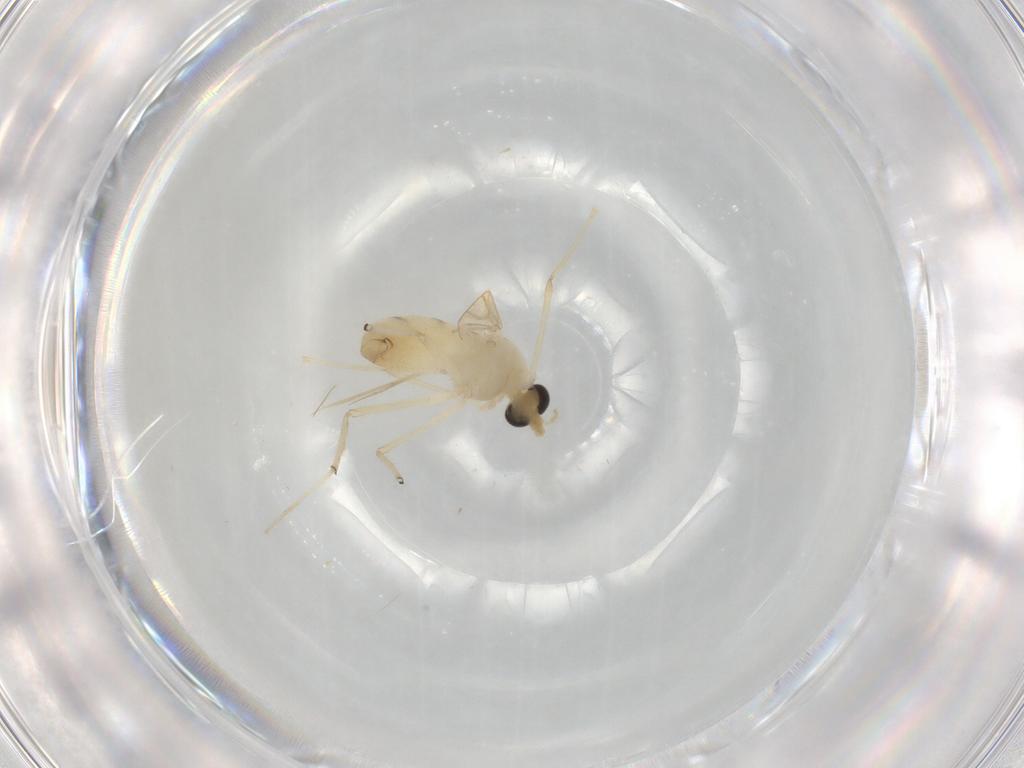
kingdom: Animalia
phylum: Arthropoda
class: Insecta
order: Diptera
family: Chironomidae
